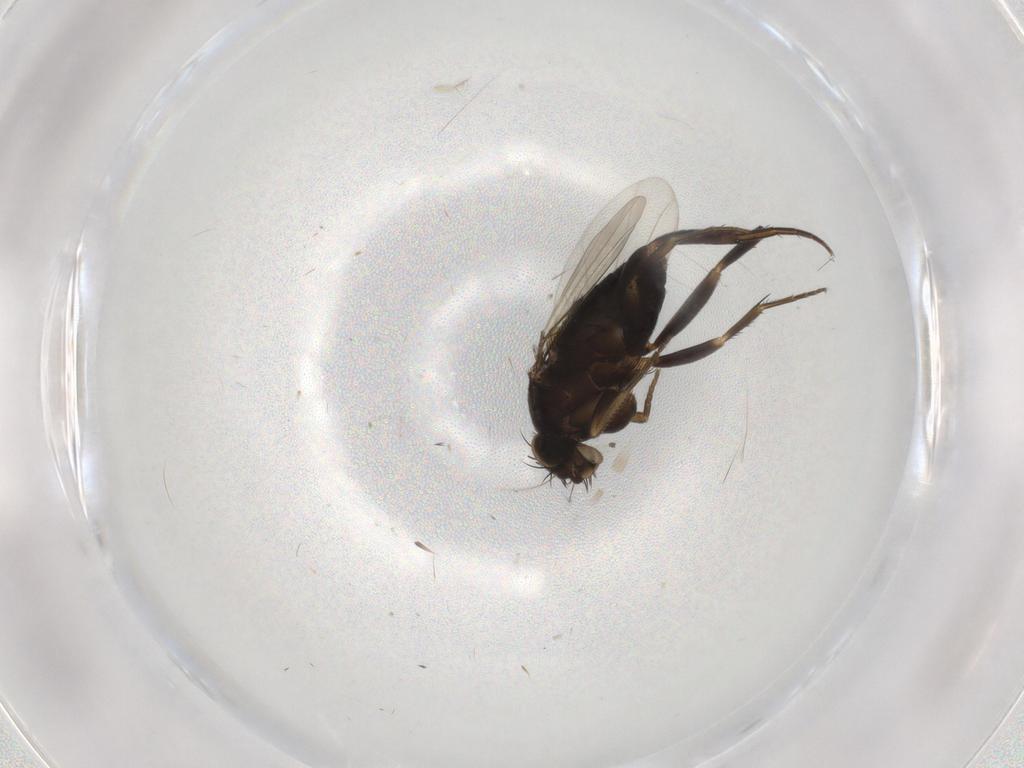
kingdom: Animalia
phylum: Arthropoda
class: Insecta
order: Diptera
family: Phoridae
